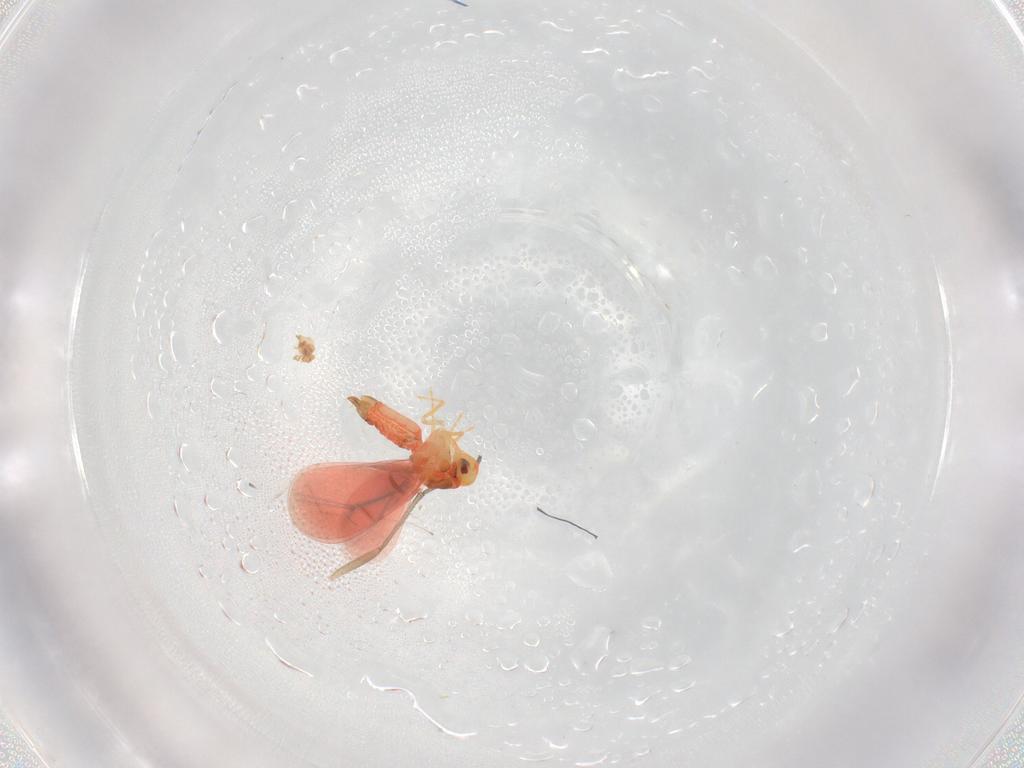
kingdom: Animalia
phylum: Arthropoda
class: Insecta
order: Hemiptera
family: Aleyrodidae
